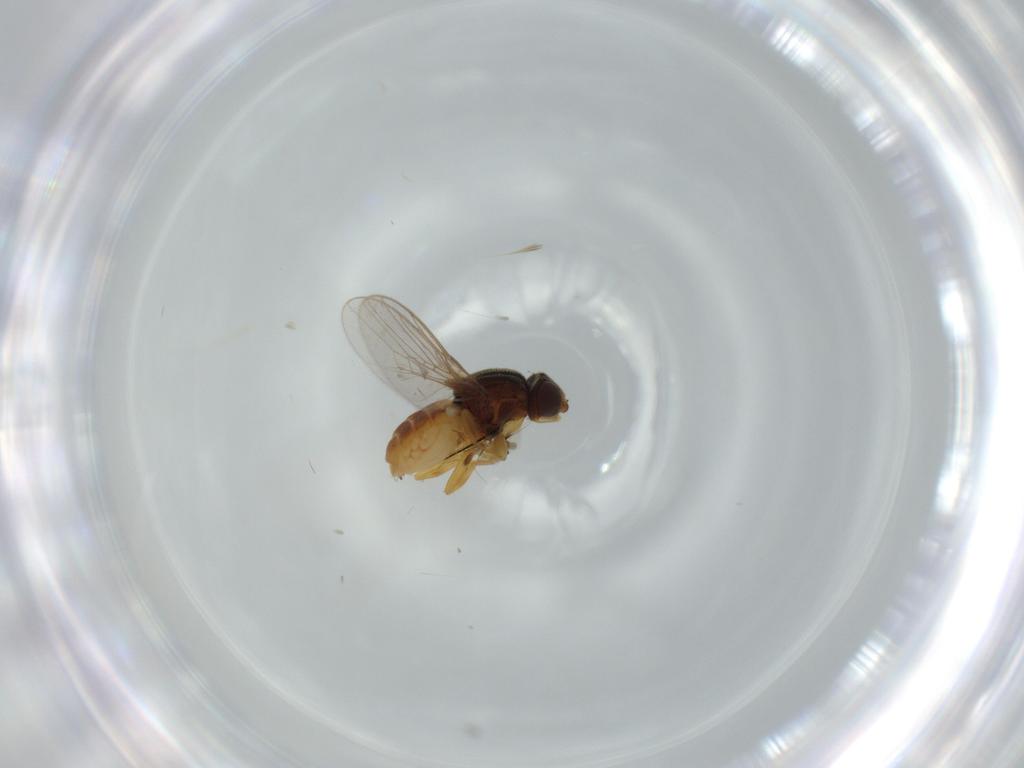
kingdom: Animalia
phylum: Arthropoda
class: Insecta
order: Diptera
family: Chloropidae
